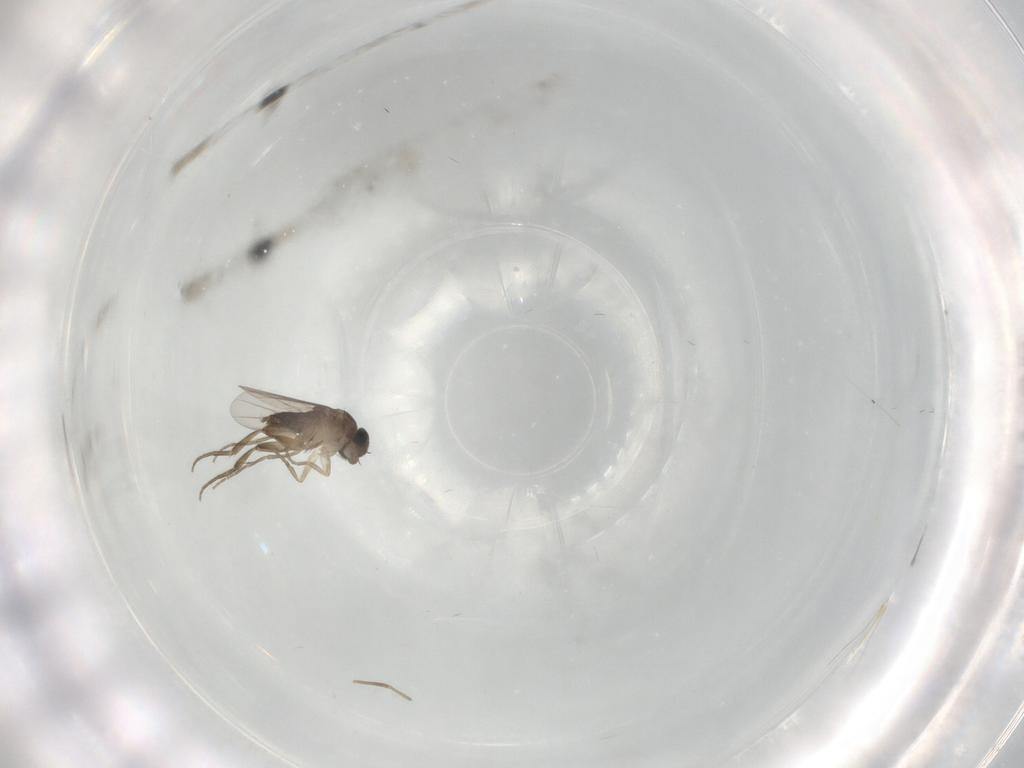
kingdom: Animalia
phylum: Arthropoda
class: Insecta
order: Diptera
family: Phoridae
